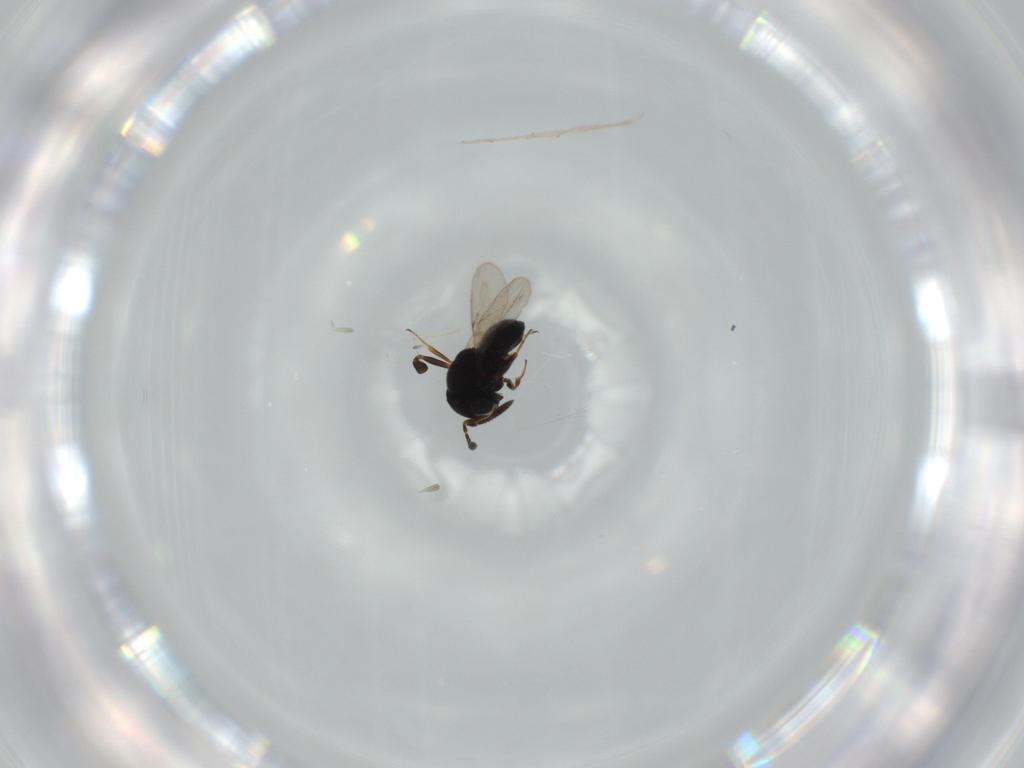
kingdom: Animalia
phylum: Arthropoda
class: Insecta
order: Hymenoptera
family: Scelionidae
